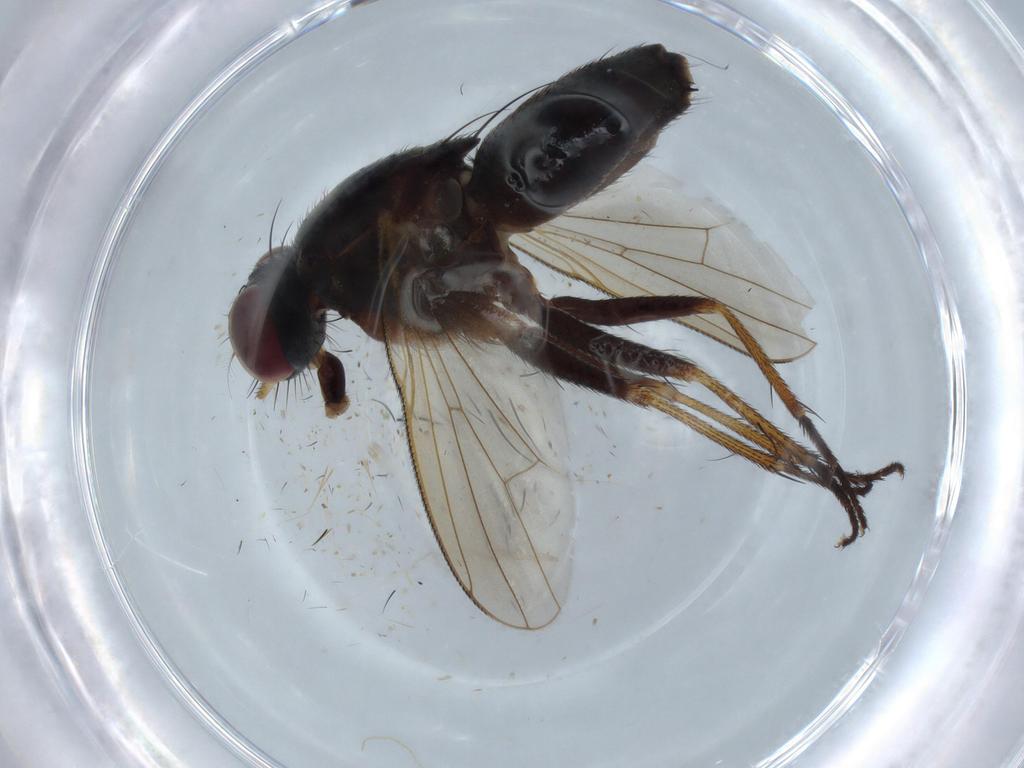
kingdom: Animalia
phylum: Arthropoda
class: Insecta
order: Diptera
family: Muscidae
